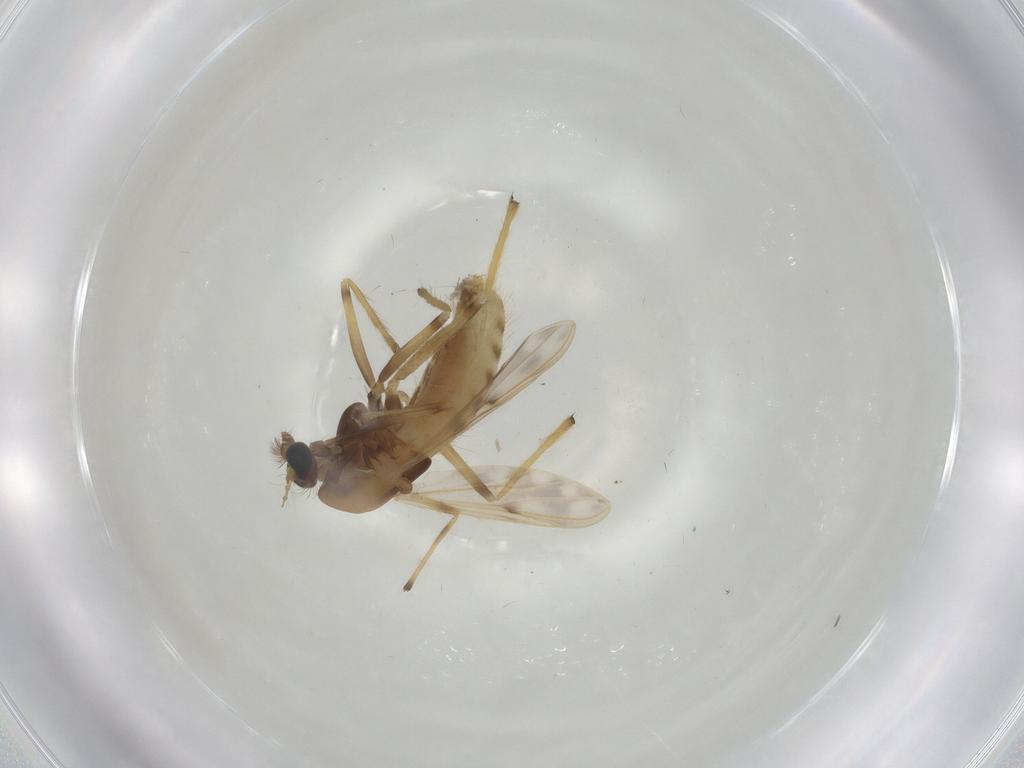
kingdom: Animalia
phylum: Arthropoda
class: Insecta
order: Diptera
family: Chironomidae
